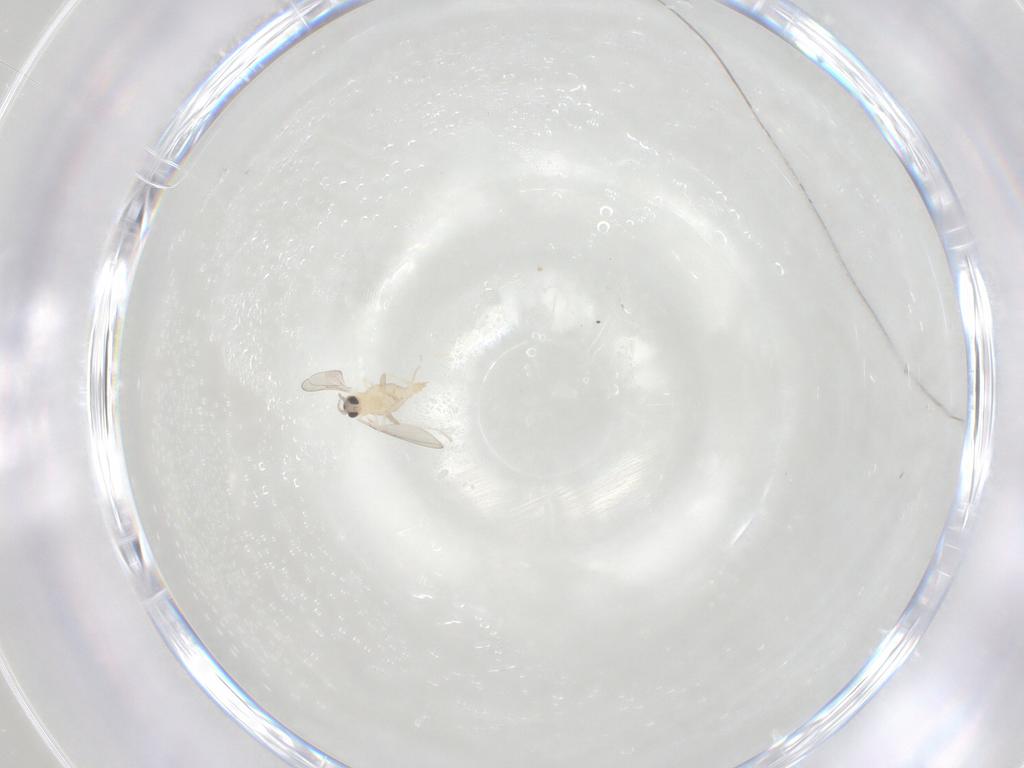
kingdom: Animalia
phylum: Arthropoda
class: Insecta
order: Diptera
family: Cecidomyiidae
